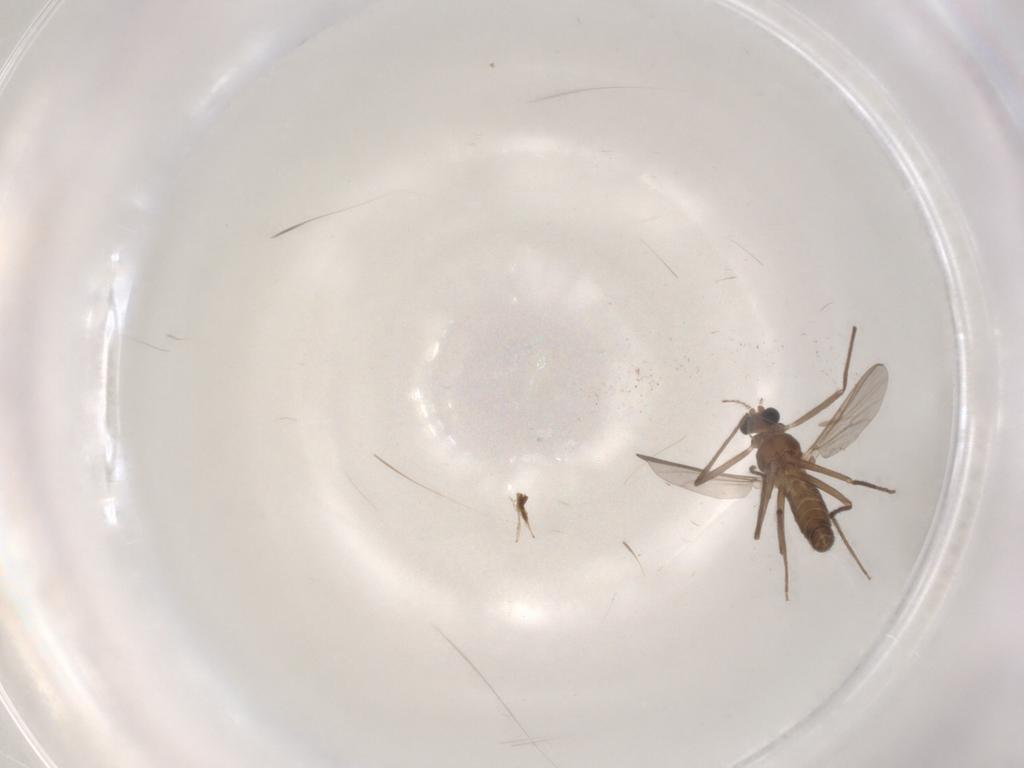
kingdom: Animalia
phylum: Arthropoda
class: Insecta
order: Diptera
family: Chironomidae
